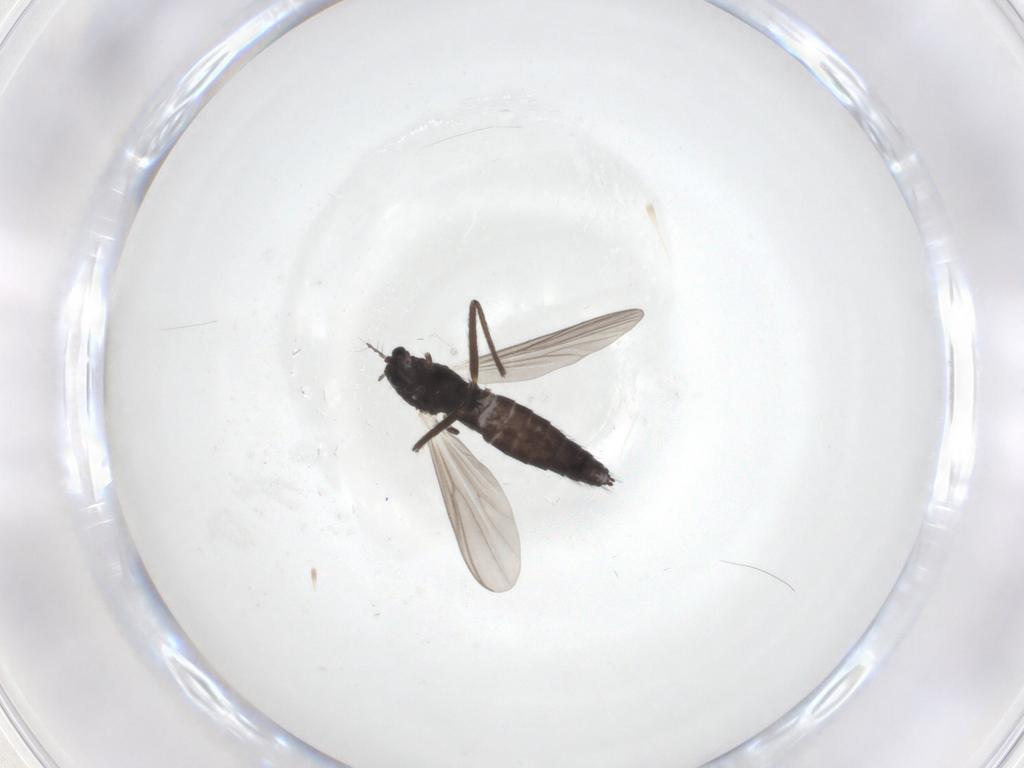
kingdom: Animalia
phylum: Arthropoda
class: Insecta
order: Diptera
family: Chironomidae
